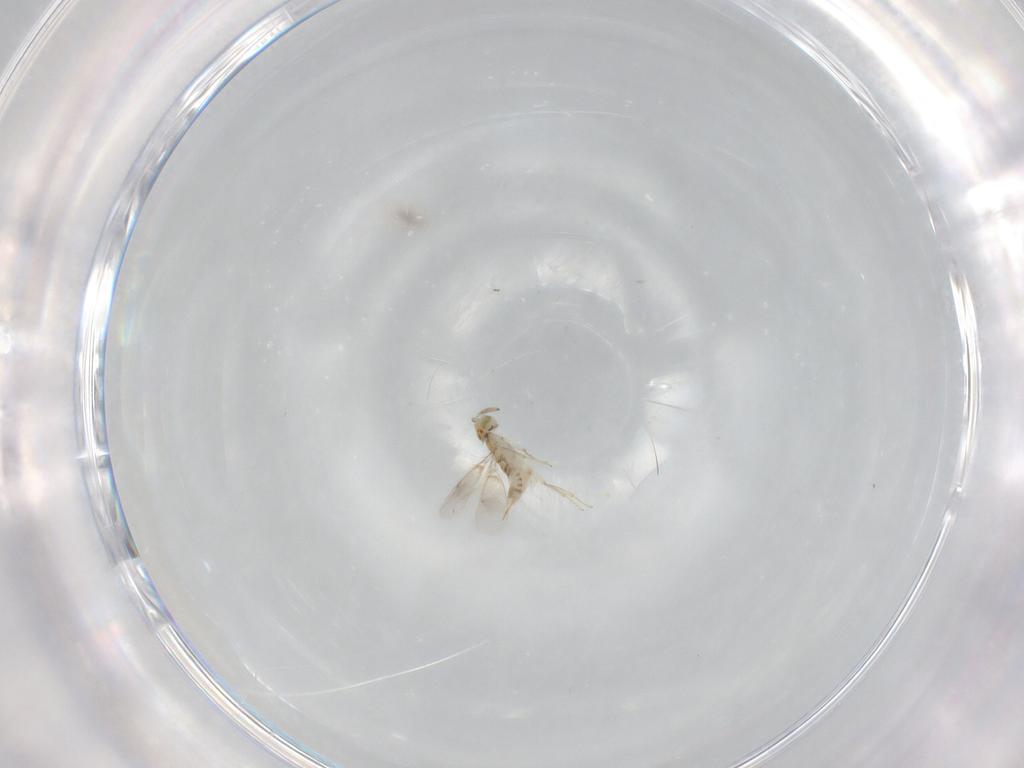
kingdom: Animalia
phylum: Arthropoda
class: Insecta
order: Hymenoptera
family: Aphelinidae
